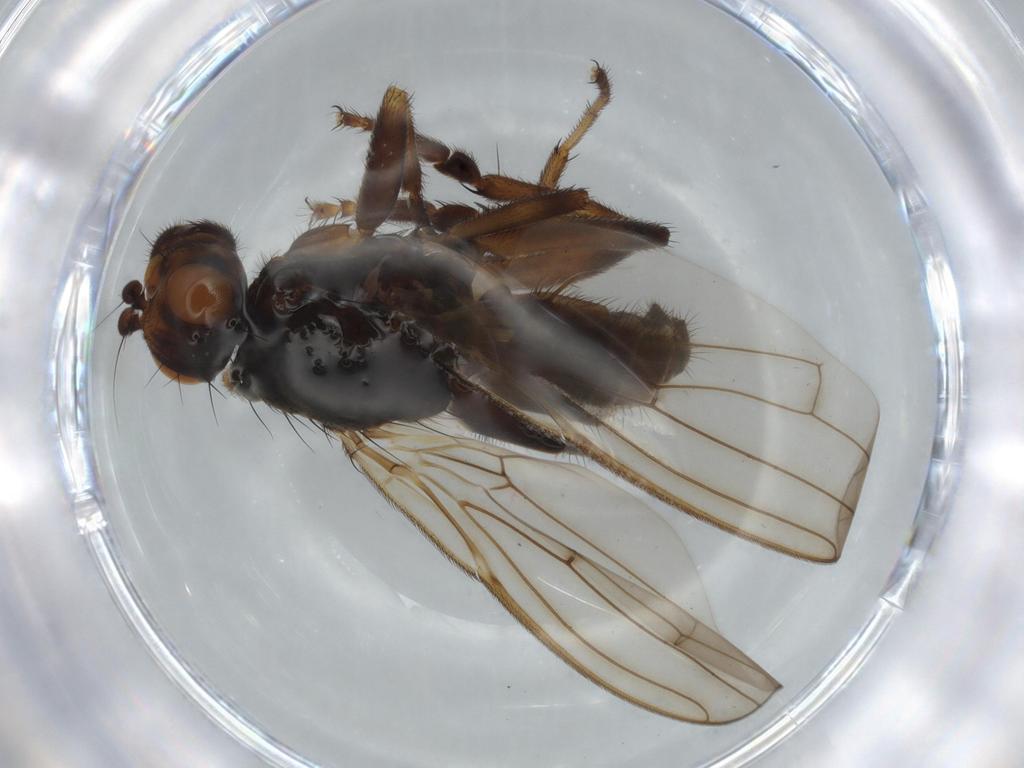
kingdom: Animalia
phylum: Arthropoda
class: Insecta
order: Diptera
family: Sphaeroceridae
